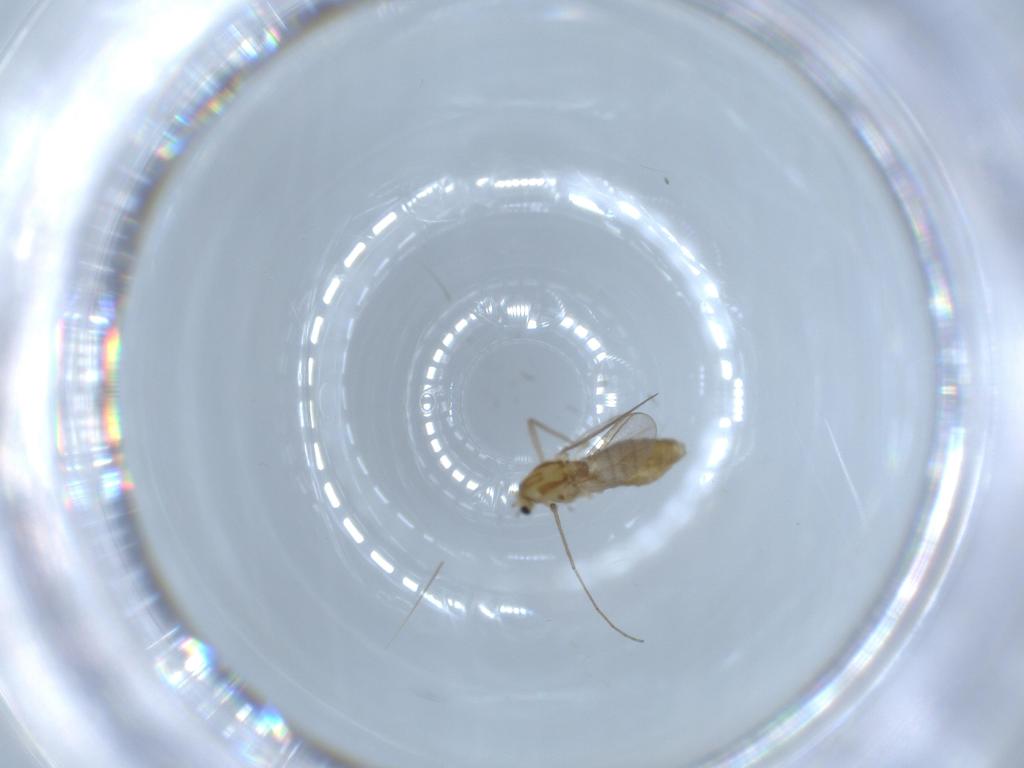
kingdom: Animalia
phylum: Arthropoda
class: Insecta
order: Diptera
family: Chironomidae
